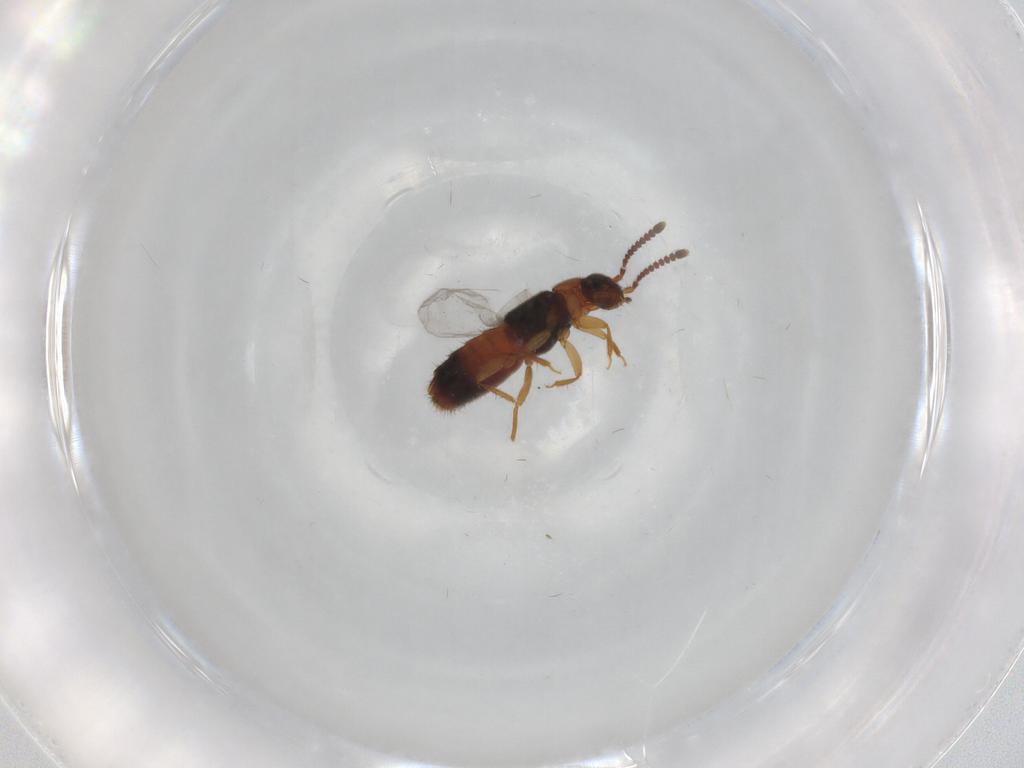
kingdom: Animalia
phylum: Arthropoda
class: Insecta
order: Coleoptera
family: Staphylinidae
